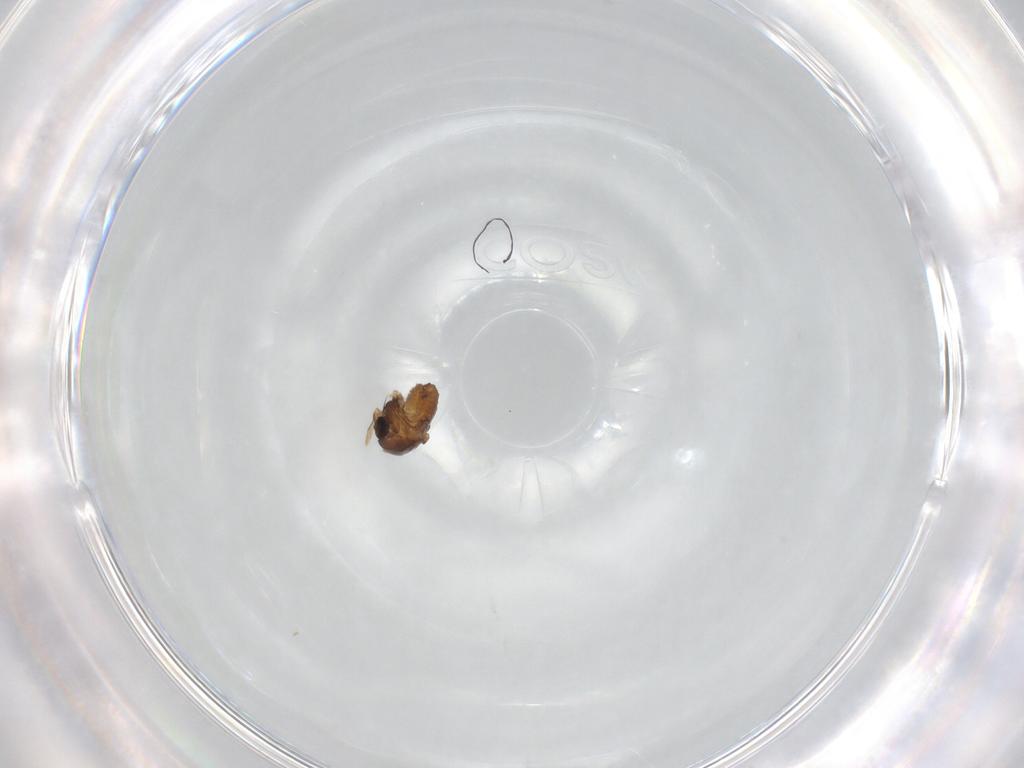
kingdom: Animalia
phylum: Arthropoda
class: Insecta
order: Diptera
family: Chironomidae
